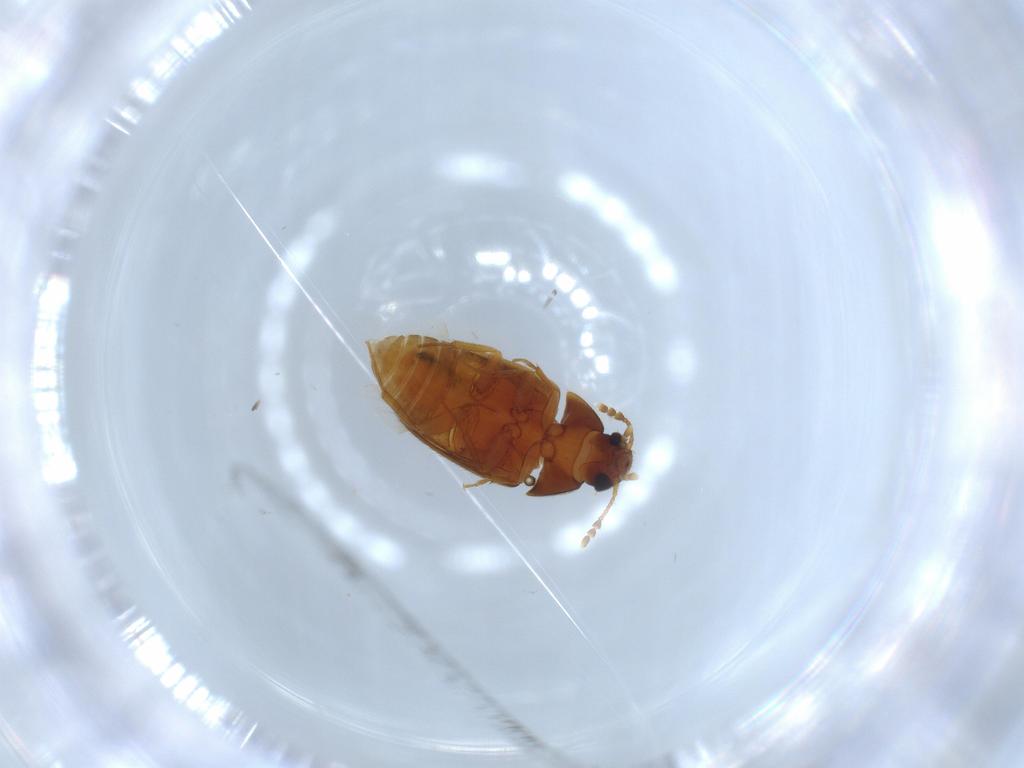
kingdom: Animalia
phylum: Arthropoda
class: Insecta
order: Coleoptera
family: Mycetophagidae
